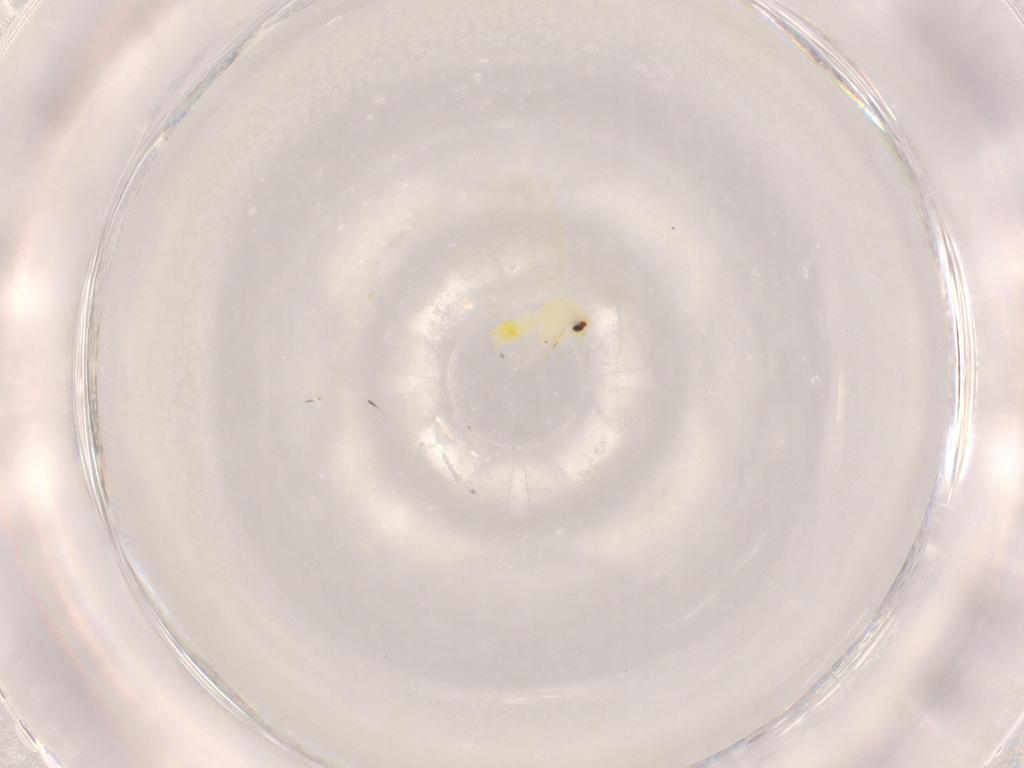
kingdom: Animalia
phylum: Arthropoda
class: Insecta
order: Hemiptera
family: Aleyrodidae
